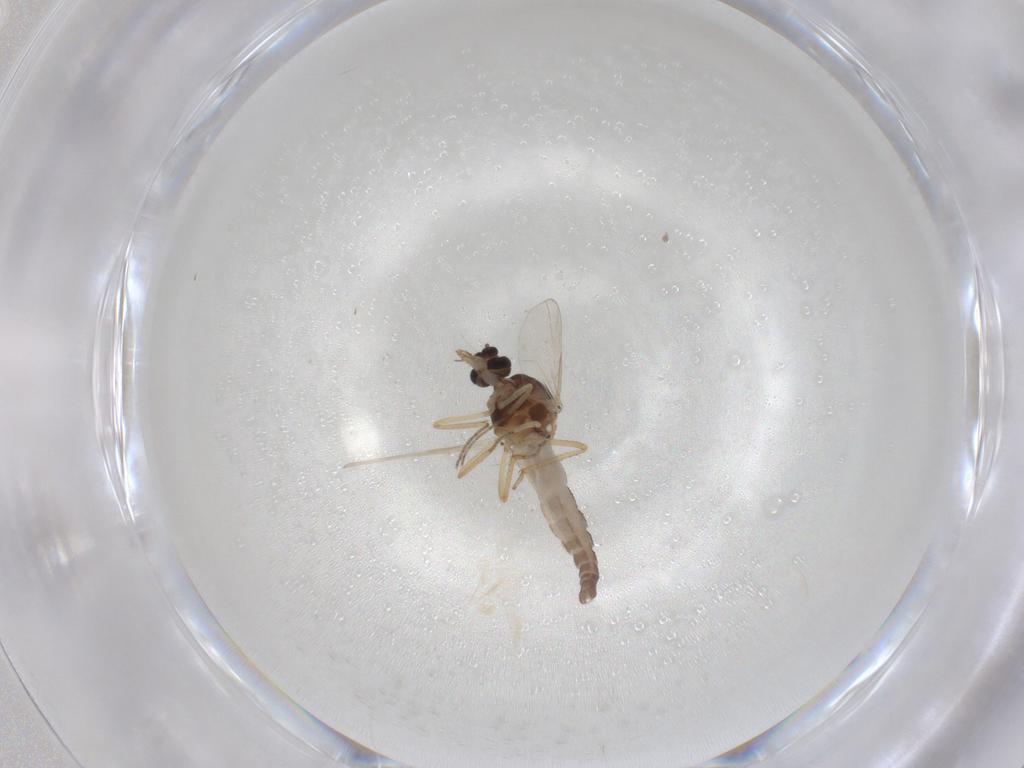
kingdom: Animalia
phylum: Arthropoda
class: Insecta
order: Diptera
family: Ceratopogonidae
